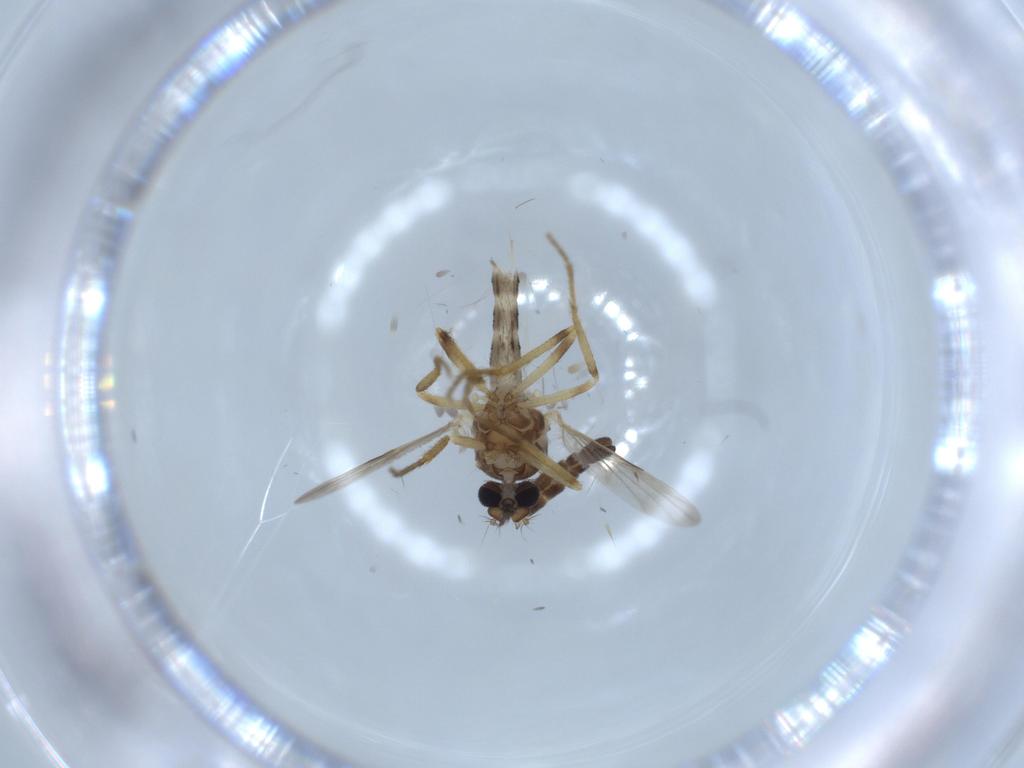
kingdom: Animalia
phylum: Arthropoda
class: Insecta
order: Diptera
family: Ceratopogonidae
